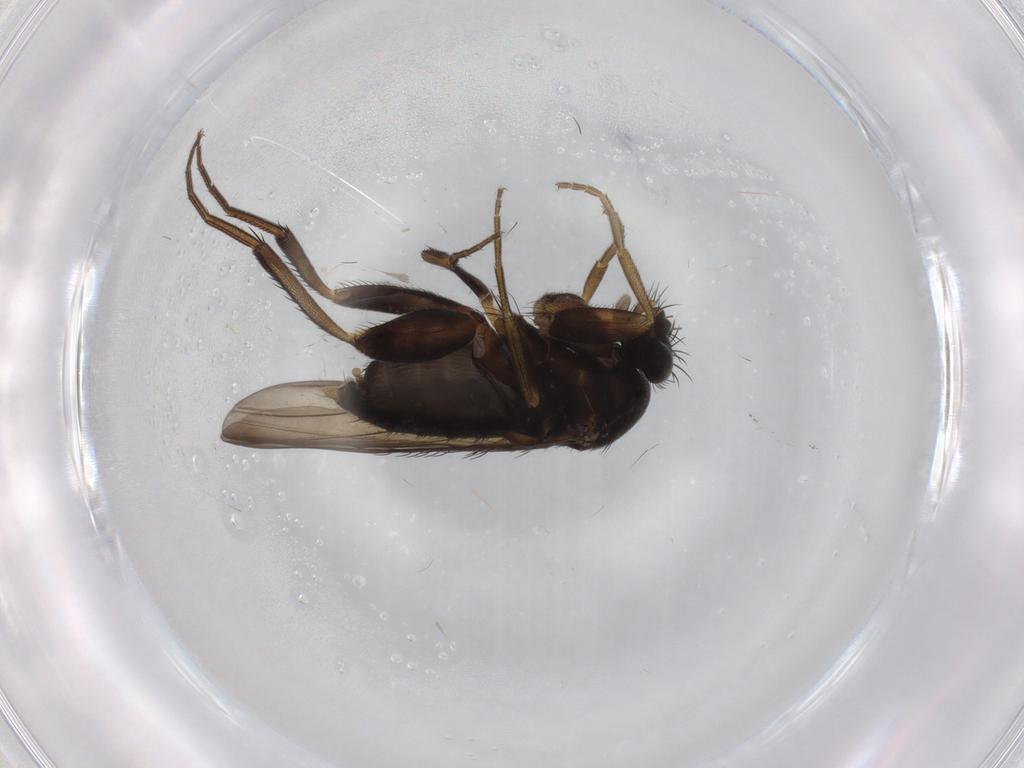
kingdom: Animalia
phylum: Arthropoda
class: Insecta
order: Diptera
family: Phoridae
